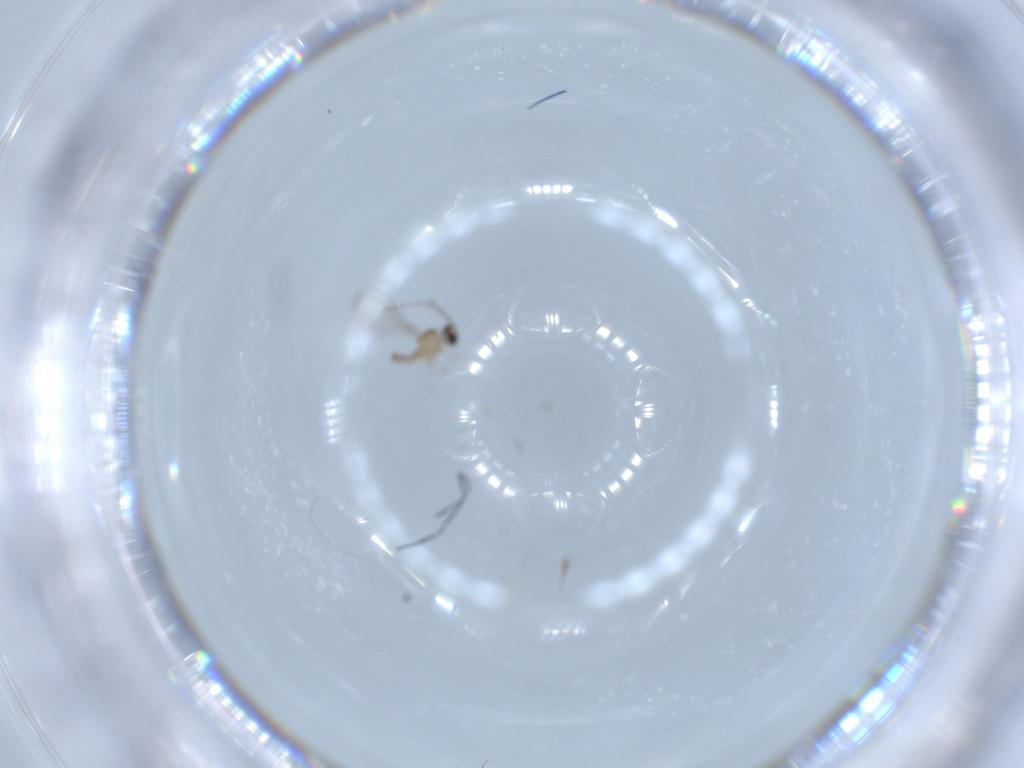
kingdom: Animalia
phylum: Arthropoda
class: Insecta
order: Diptera
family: Cecidomyiidae
